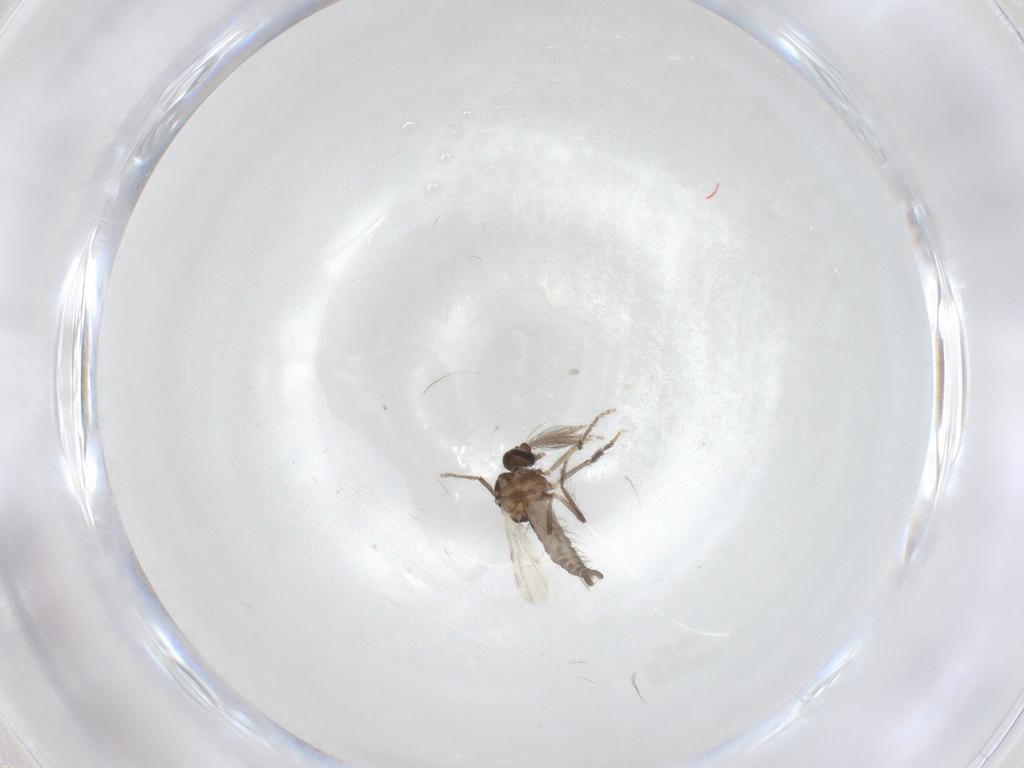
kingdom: Animalia
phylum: Arthropoda
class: Insecta
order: Diptera
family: Ceratopogonidae
